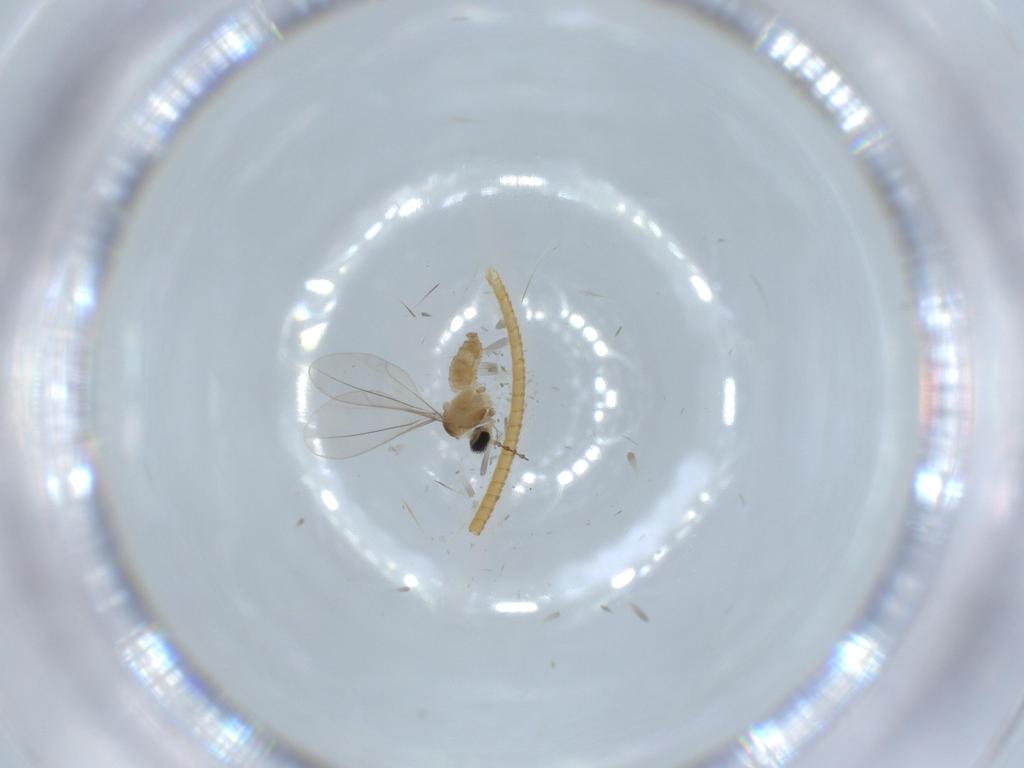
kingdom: Animalia
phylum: Arthropoda
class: Insecta
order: Diptera
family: Cecidomyiidae
